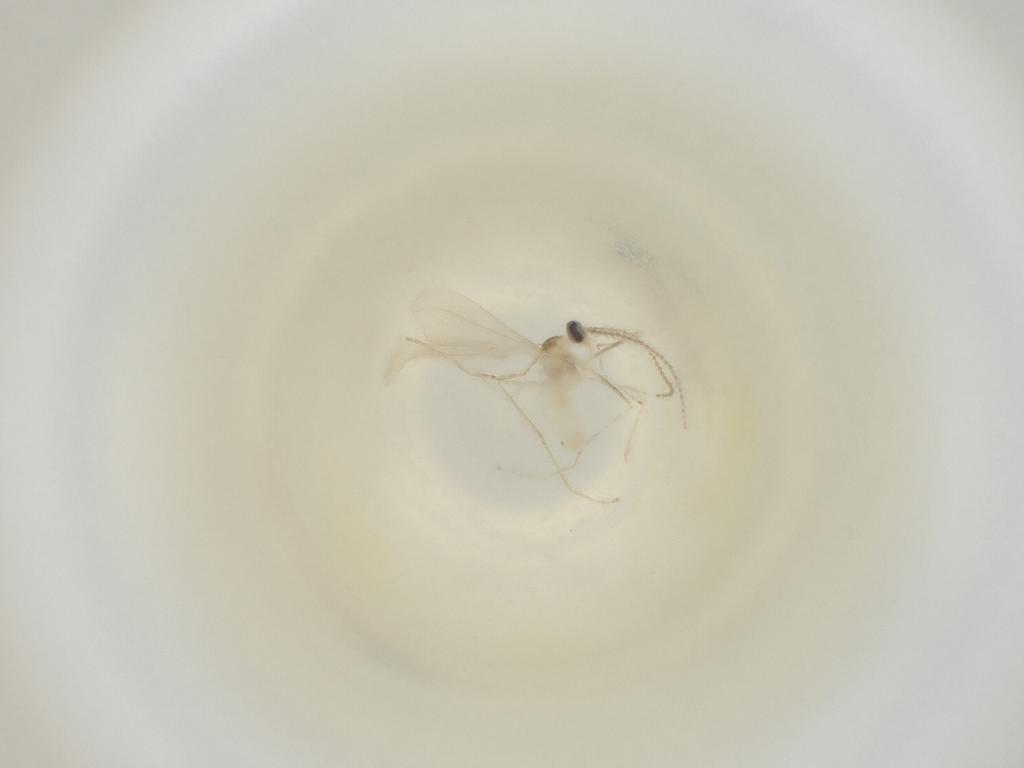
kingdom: Animalia
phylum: Arthropoda
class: Insecta
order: Diptera
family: Cecidomyiidae
